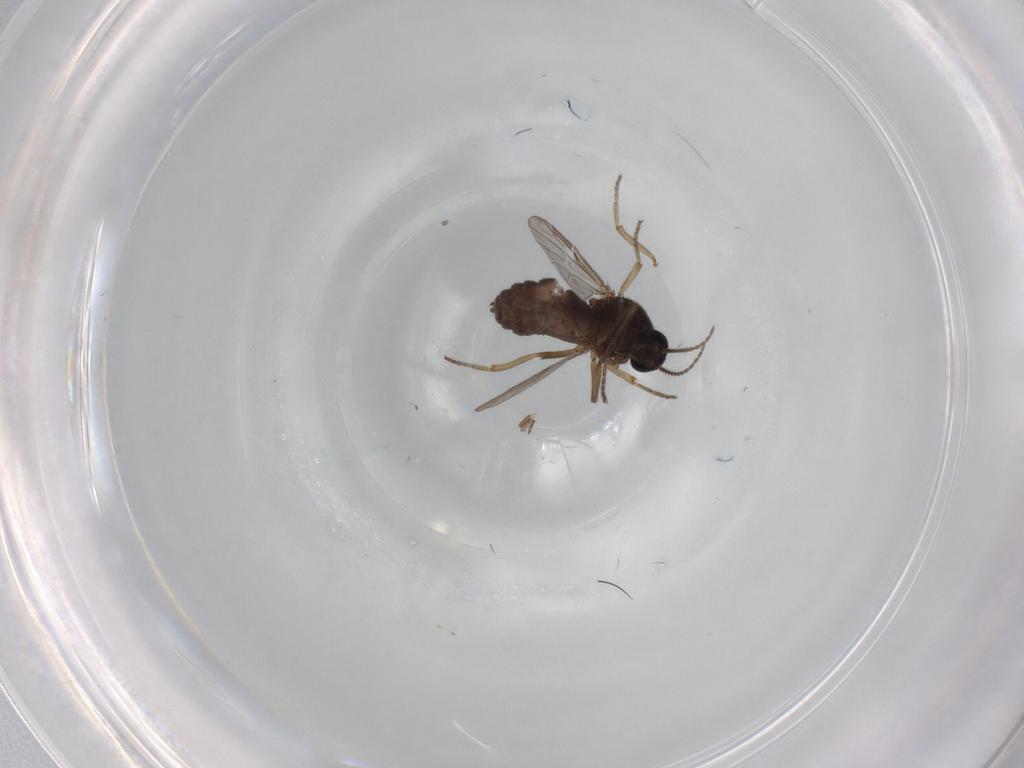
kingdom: Animalia
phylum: Arthropoda
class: Insecta
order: Diptera
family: Ceratopogonidae
